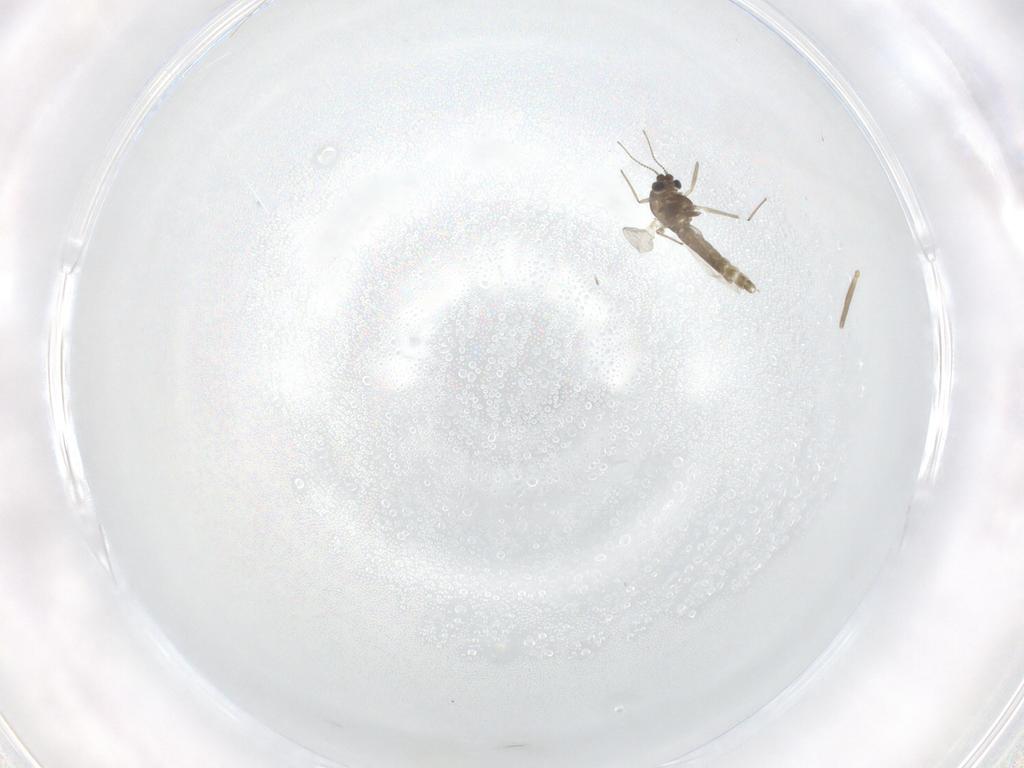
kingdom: Animalia
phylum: Arthropoda
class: Insecta
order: Diptera
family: Chironomidae
